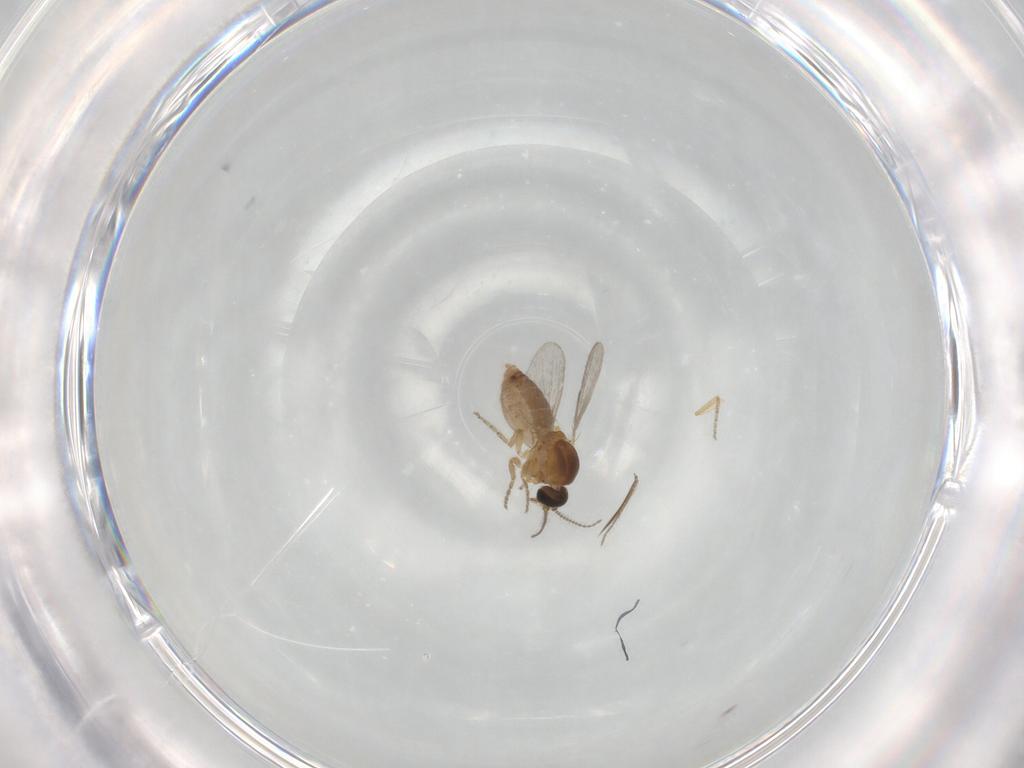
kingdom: Animalia
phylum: Arthropoda
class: Insecta
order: Diptera
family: Ceratopogonidae
